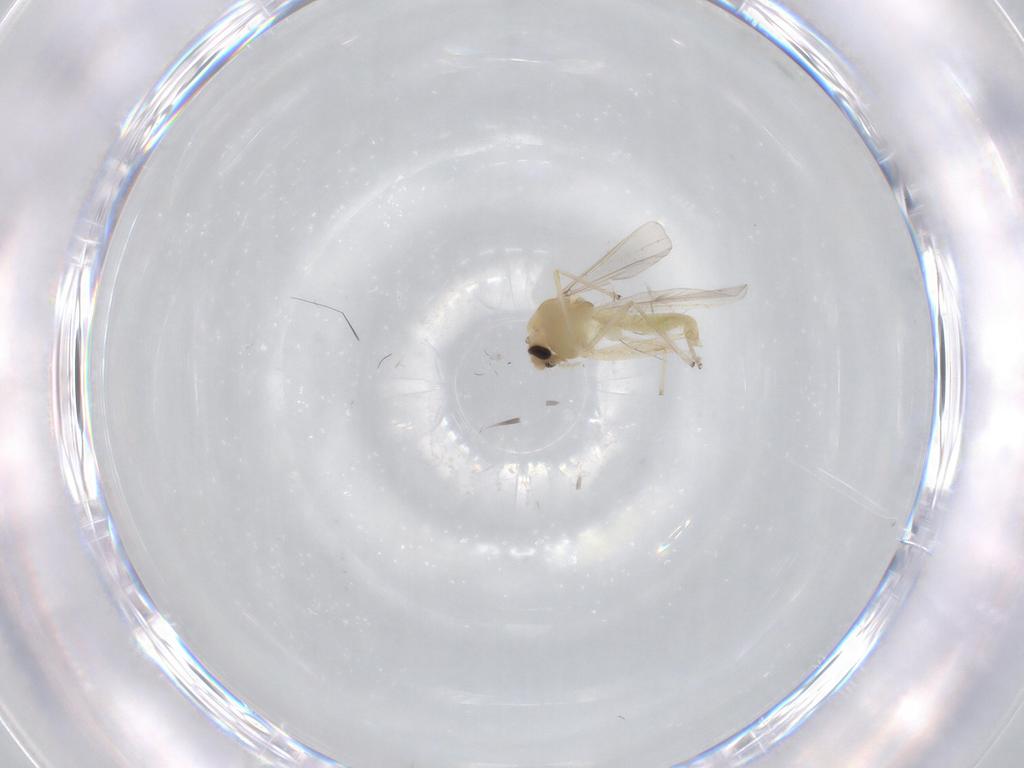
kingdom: Animalia
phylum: Arthropoda
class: Insecta
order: Diptera
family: Chironomidae
